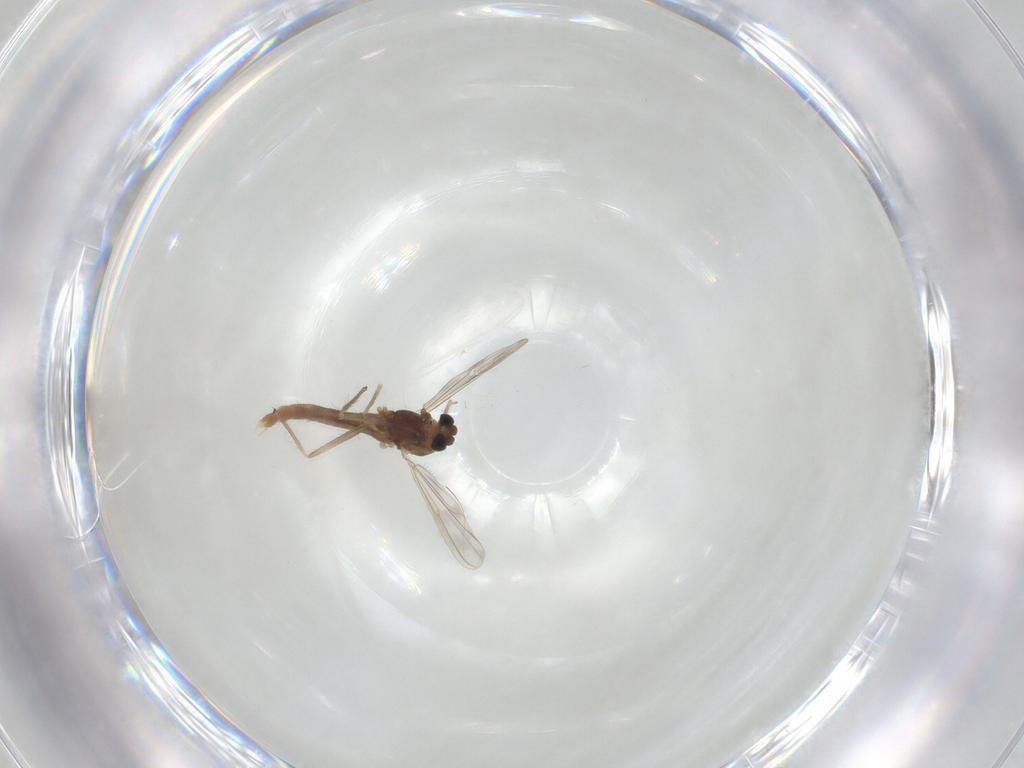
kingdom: Animalia
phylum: Arthropoda
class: Insecta
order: Diptera
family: Chironomidae
